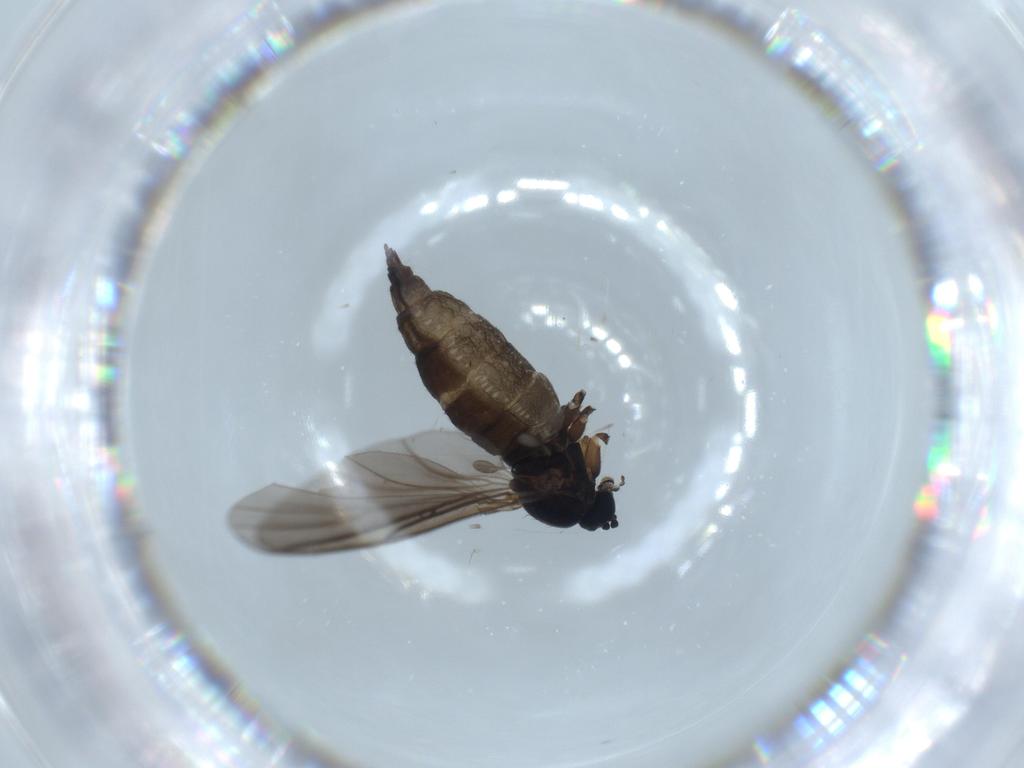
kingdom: Animalia
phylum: Arthropoda
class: Insecta
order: Diptera
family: Sciaridae
